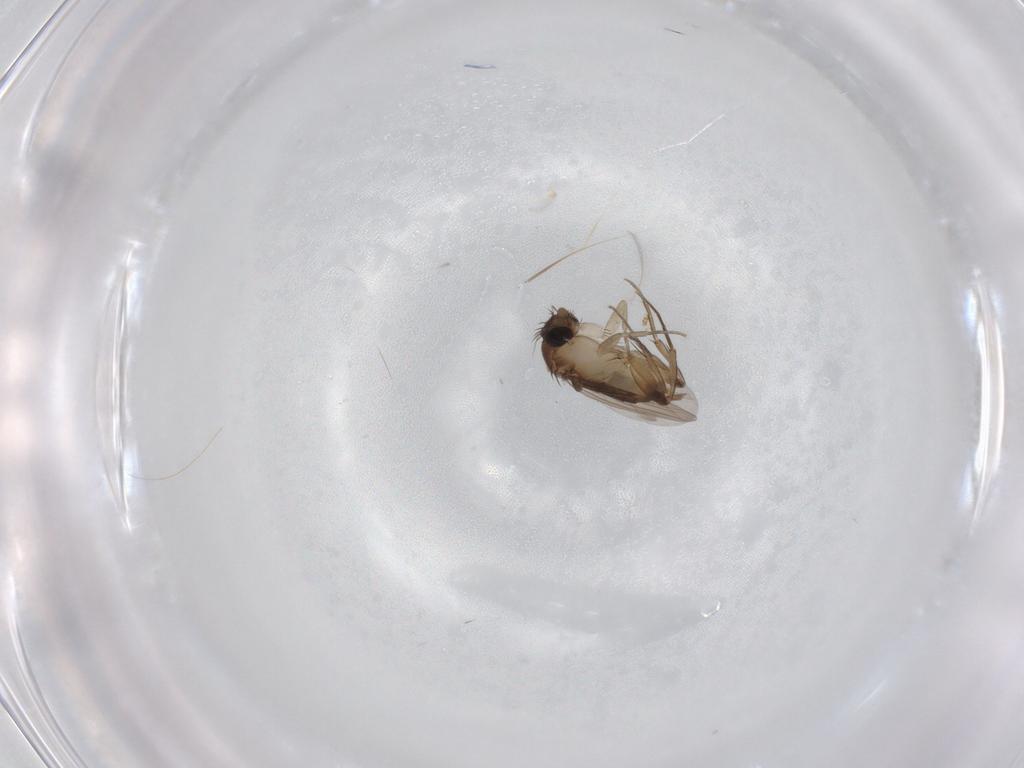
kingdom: Animalia
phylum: Arthropoda
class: Insecta
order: Diptera
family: Phoridae
